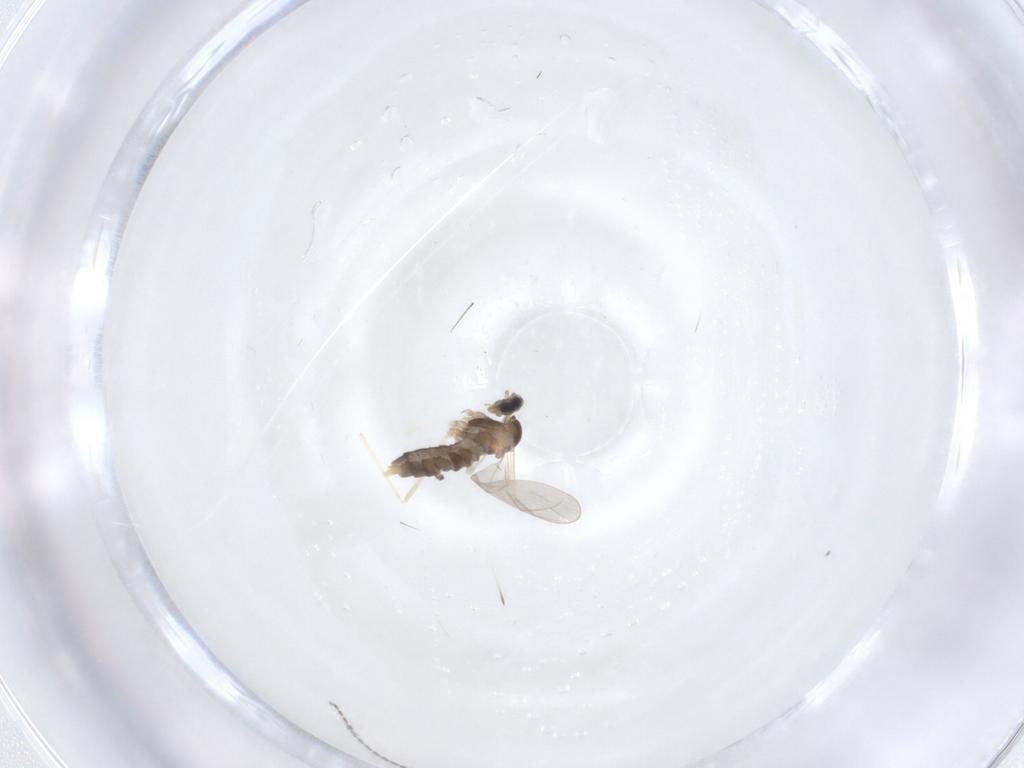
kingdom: Animalia
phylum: Arthropoda
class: Insecta
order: Diptera
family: Cecidomyiidae
